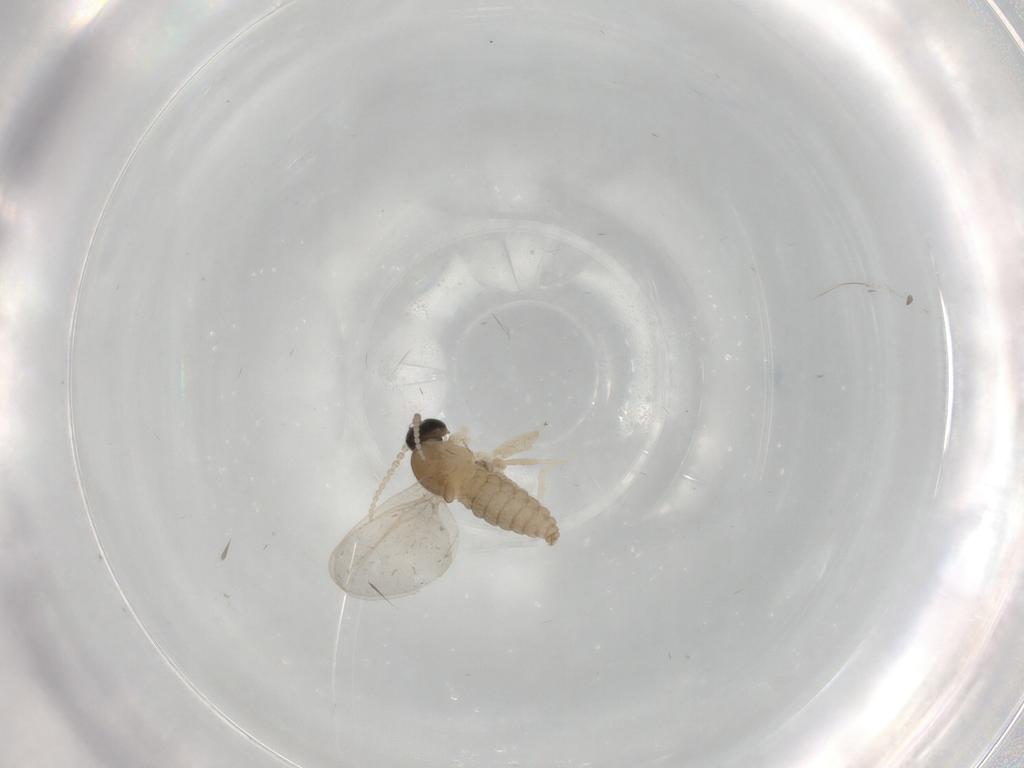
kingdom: Animalia
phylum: Arthropoda
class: Insecta
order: Diptera
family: Cecidomyiidae
